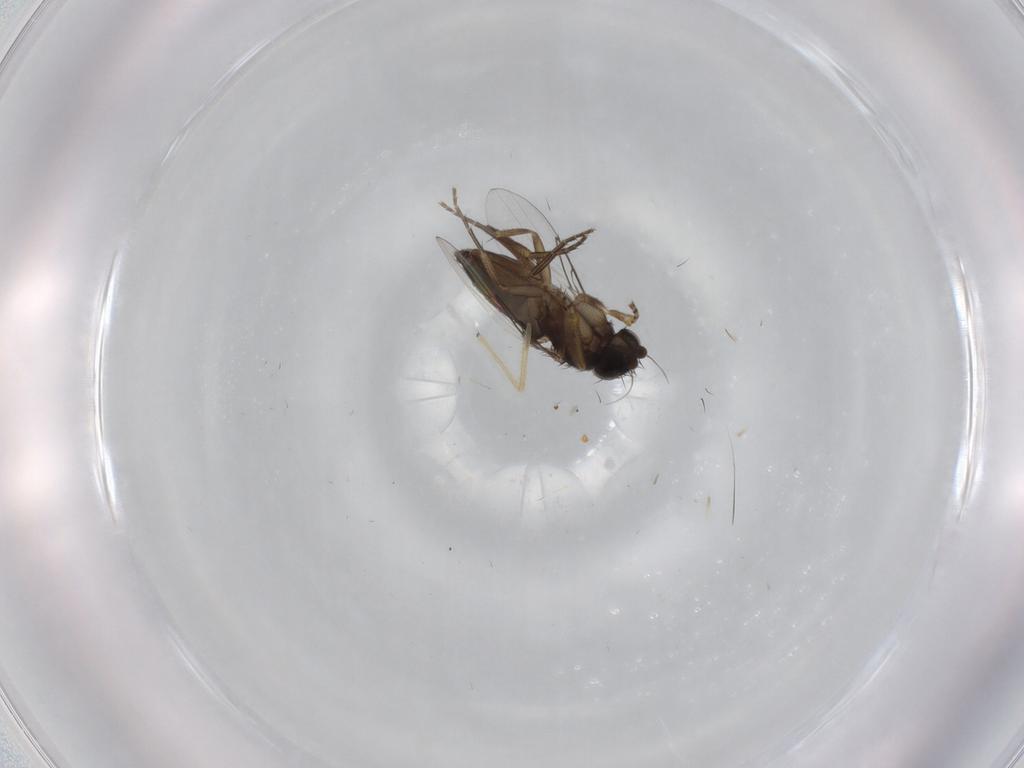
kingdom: Animalia
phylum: Arthropoda
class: Insecta
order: Diptera
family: Phoridae
